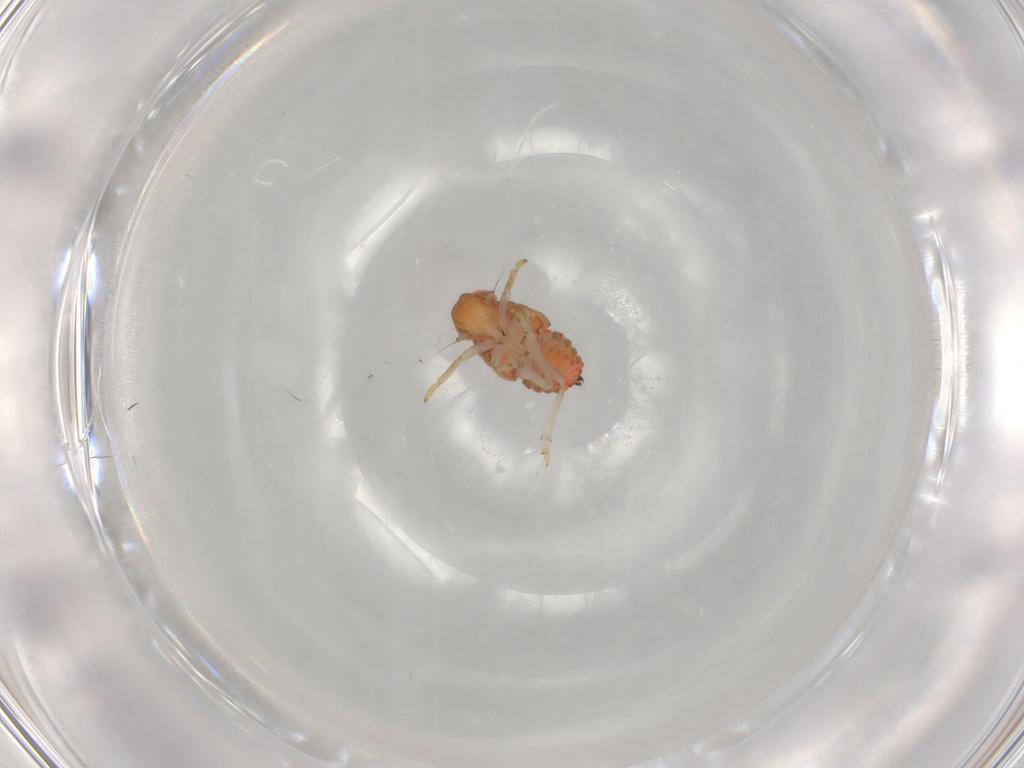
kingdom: Animalia
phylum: Arthropoda
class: Insecta
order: Hemiptera
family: Issidae
